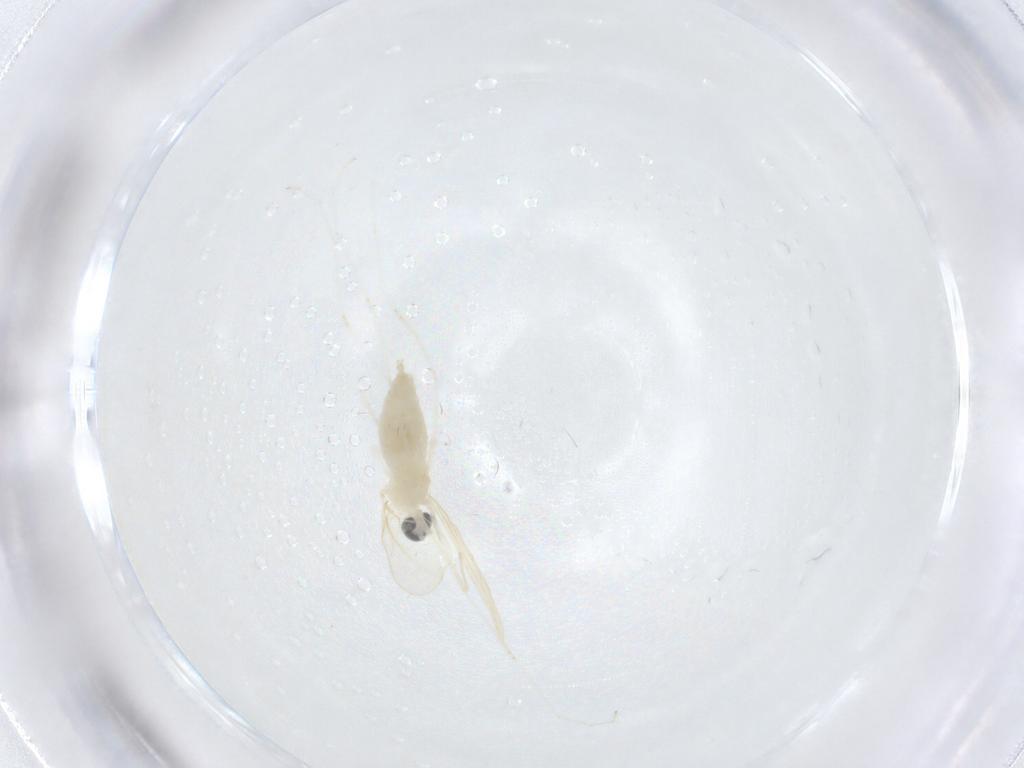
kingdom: Animalia
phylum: Arthropoda
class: Insecta
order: Diptera
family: Cecidomyiidae
